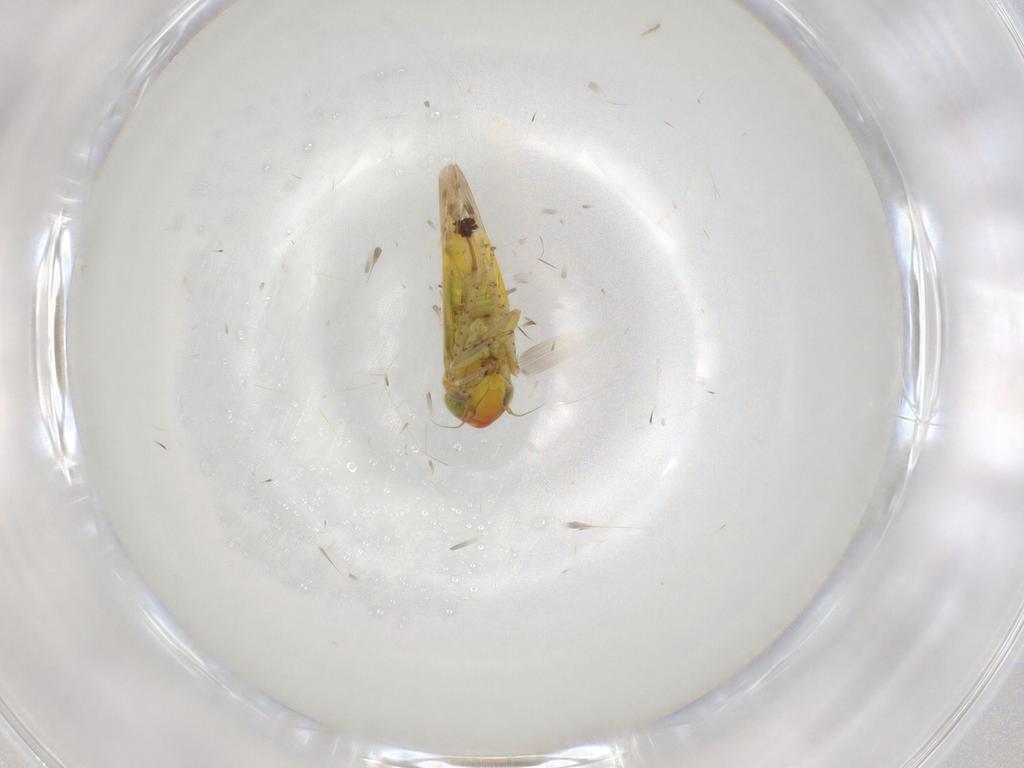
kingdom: Animalia
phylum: Arthropoda
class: Insecta
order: Hemiptera
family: Cicadellidae
